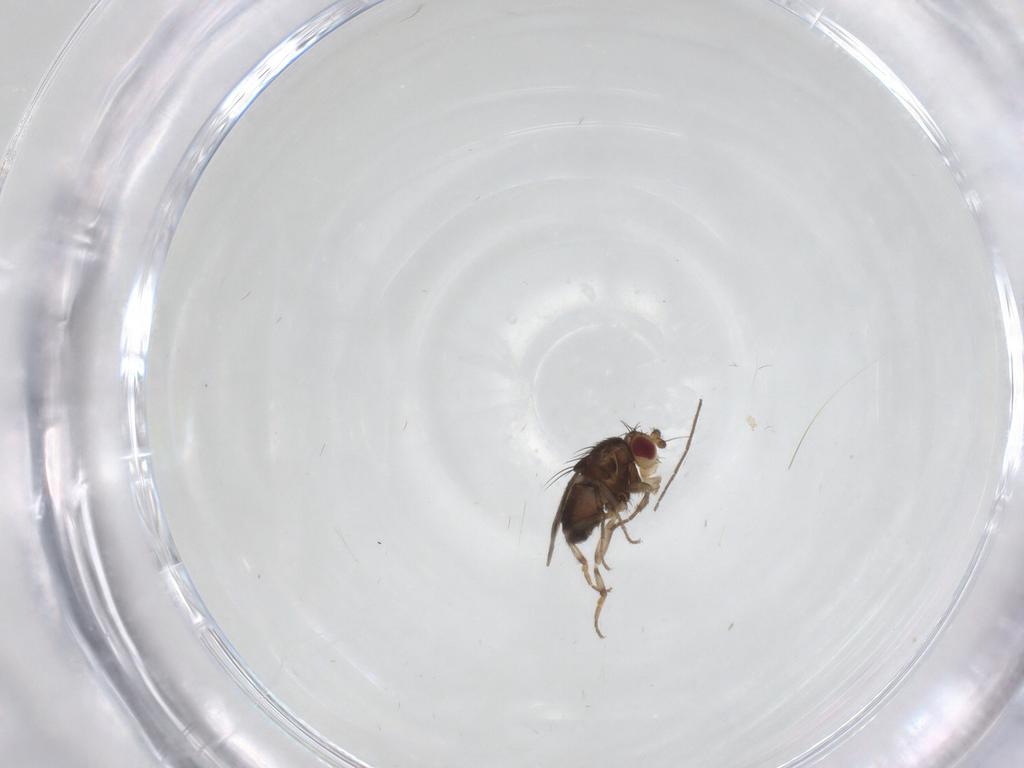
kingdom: Animalia
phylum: Arthropoda
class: Insecta
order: Diptera
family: Sphaeroceridae
